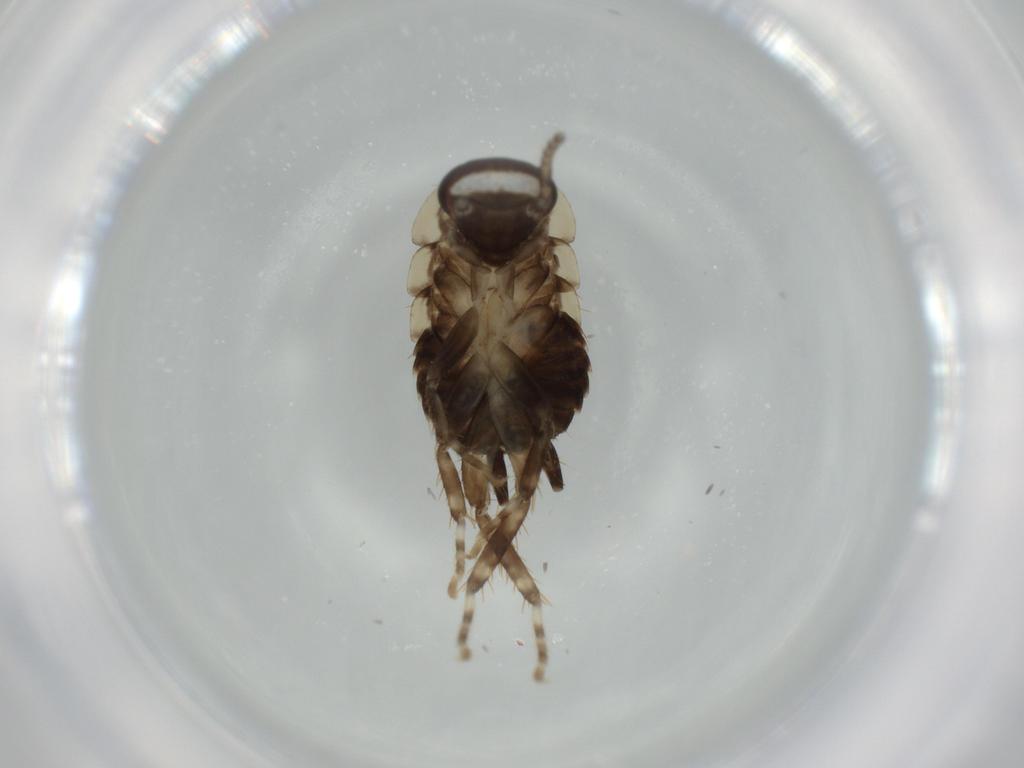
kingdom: Animalia
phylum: Arthropoda
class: Insecta
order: Blattodea
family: Ectobiidae
